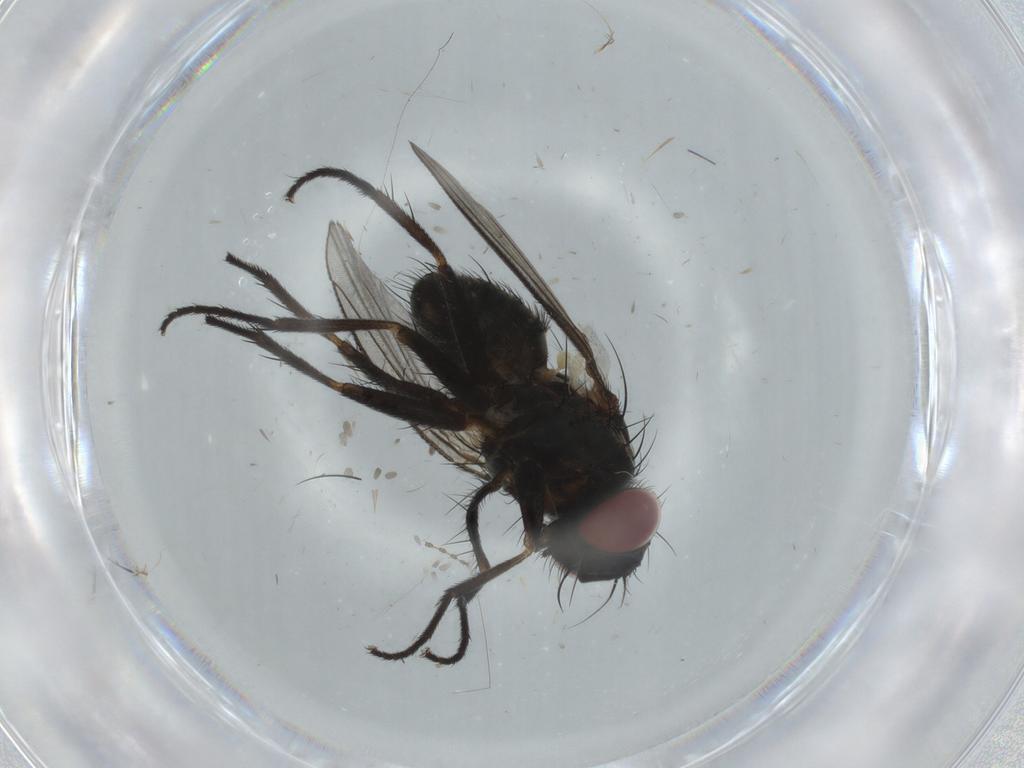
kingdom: Animalia
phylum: Arthropoda
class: Insecta
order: Diptera
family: Muscidae
